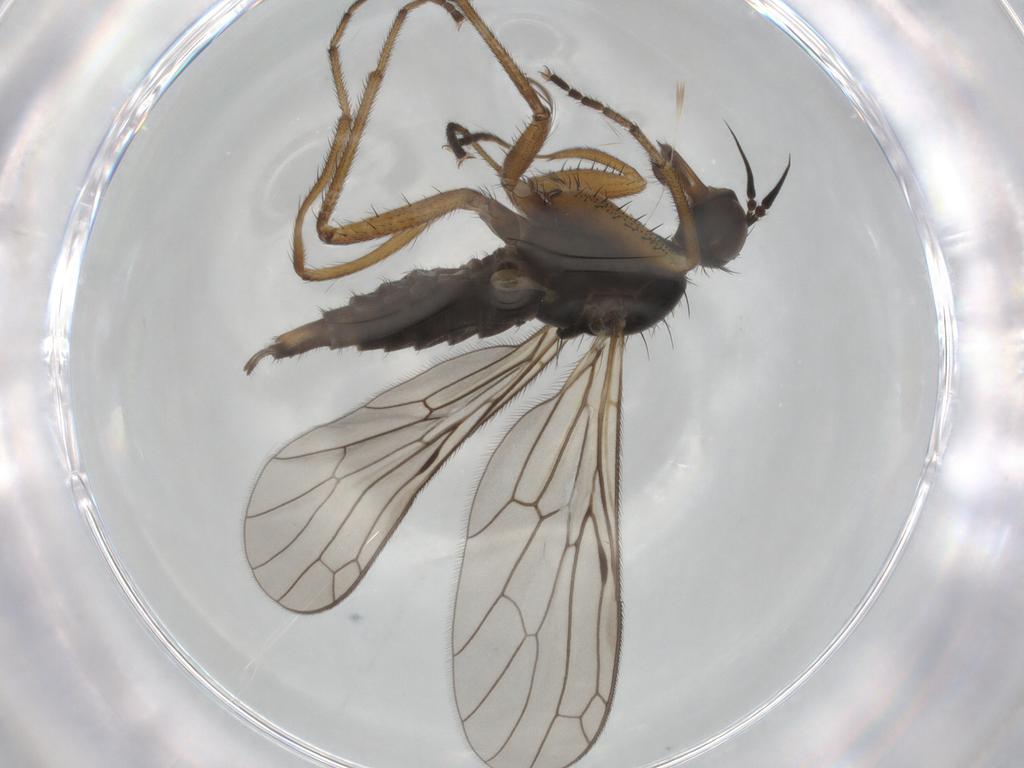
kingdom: Animalia
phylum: Arthropoda
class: Insecta
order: Diptera
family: Empididae
